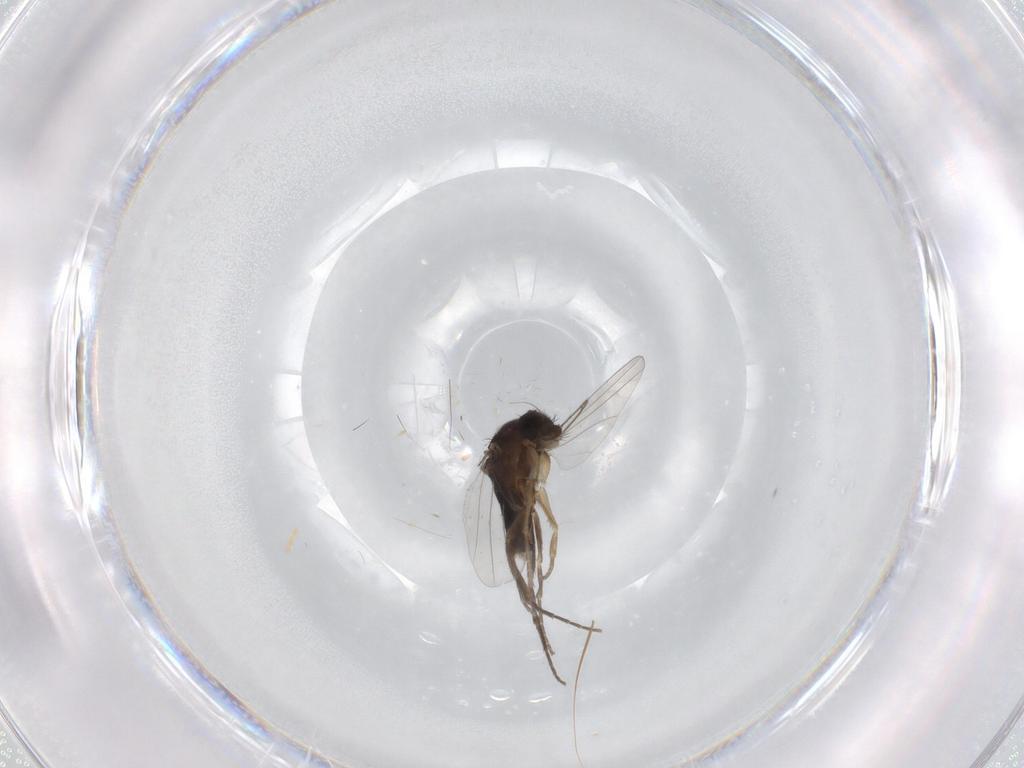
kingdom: Animalia
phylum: Arthropoda
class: Insecta
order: Diptera
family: Phoridae
